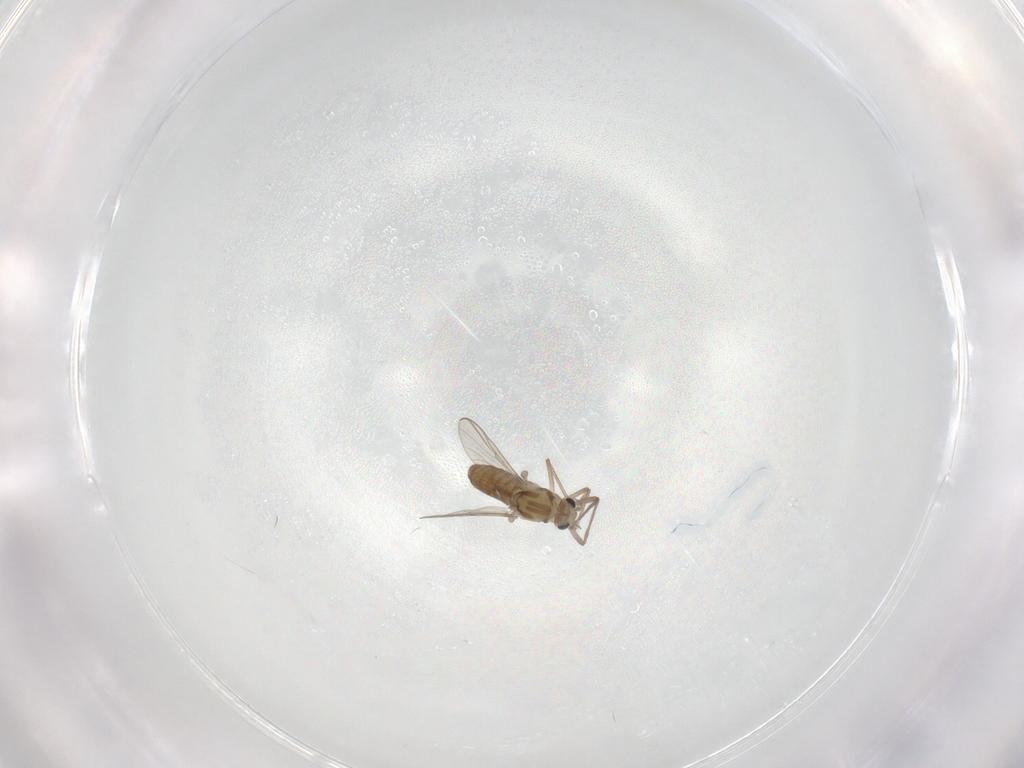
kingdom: Animalia
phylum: Arthropoda
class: Insecta
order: Diptera
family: Chironomidae
